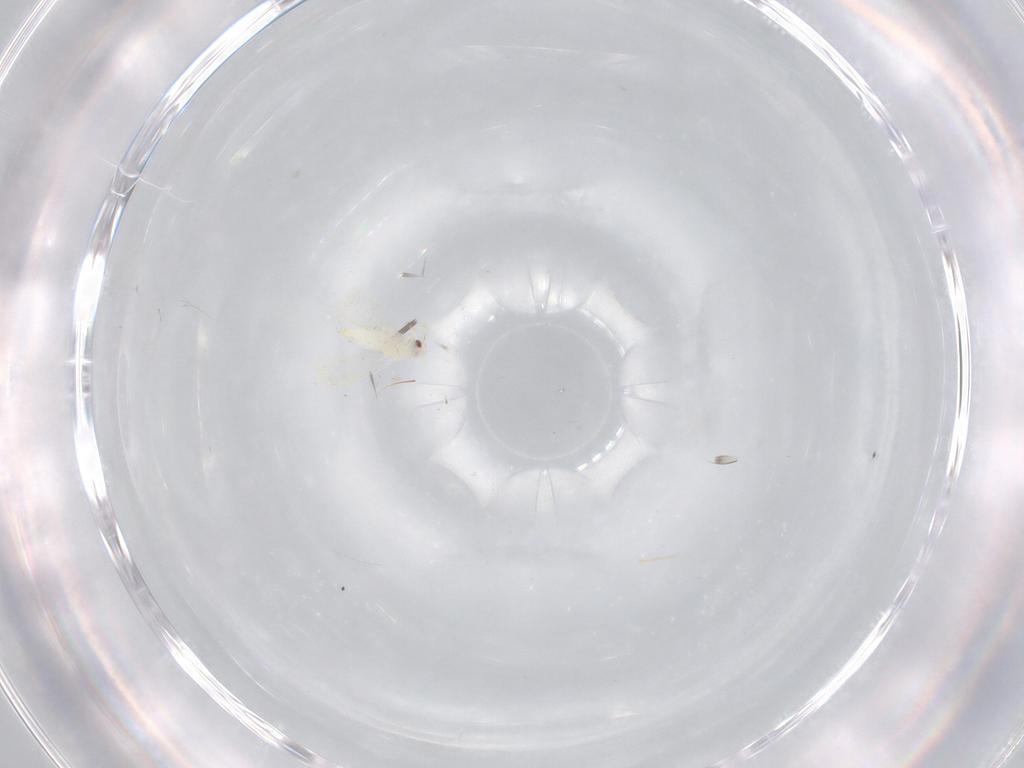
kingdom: Animalia
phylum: Arthropoda
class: Insecta
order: Hemiptera
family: Aleyrodidae
